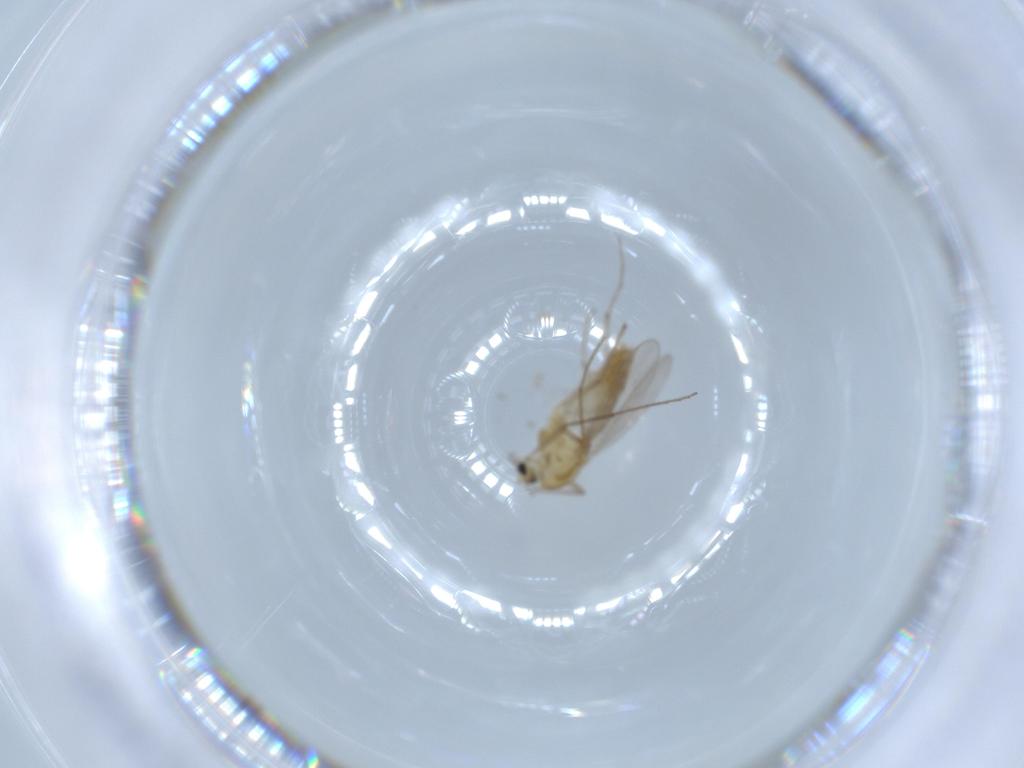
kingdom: Animalia
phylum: Arthropoda
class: Insecta
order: Diptera
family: Chironomidae
